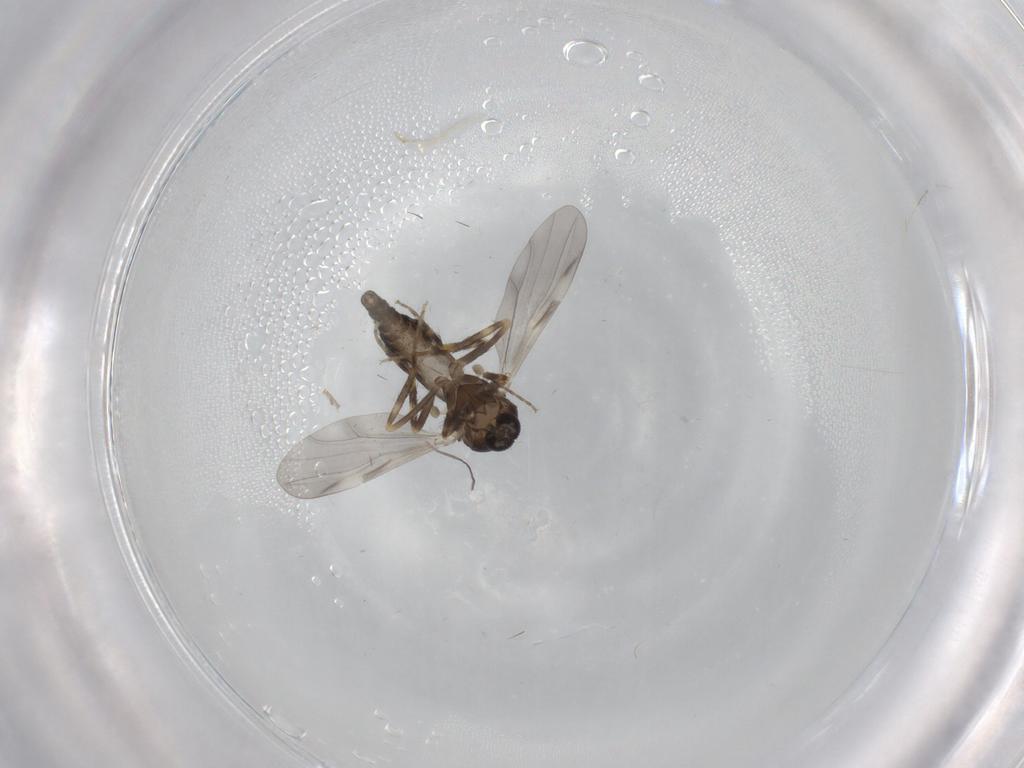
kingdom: Animalia
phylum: Arthropoda
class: Insecta
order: Diptera
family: Ceratopogonidae
